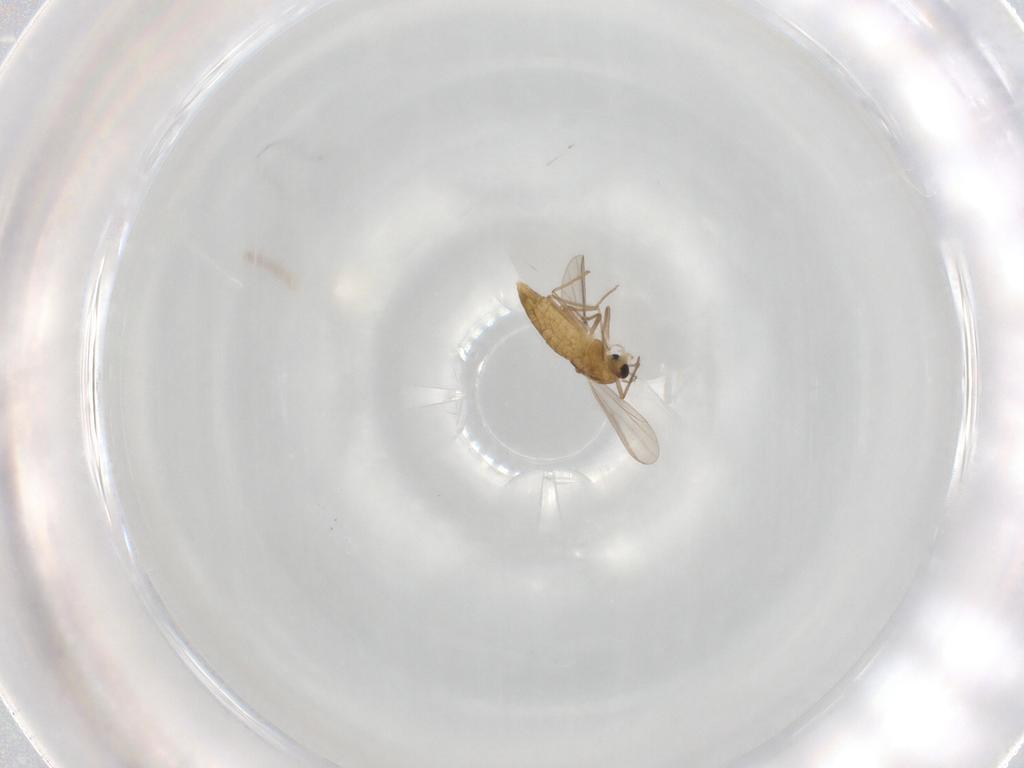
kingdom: Animalia
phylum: Arthropoda
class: Insecta
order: Diptera
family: Chironomidae
